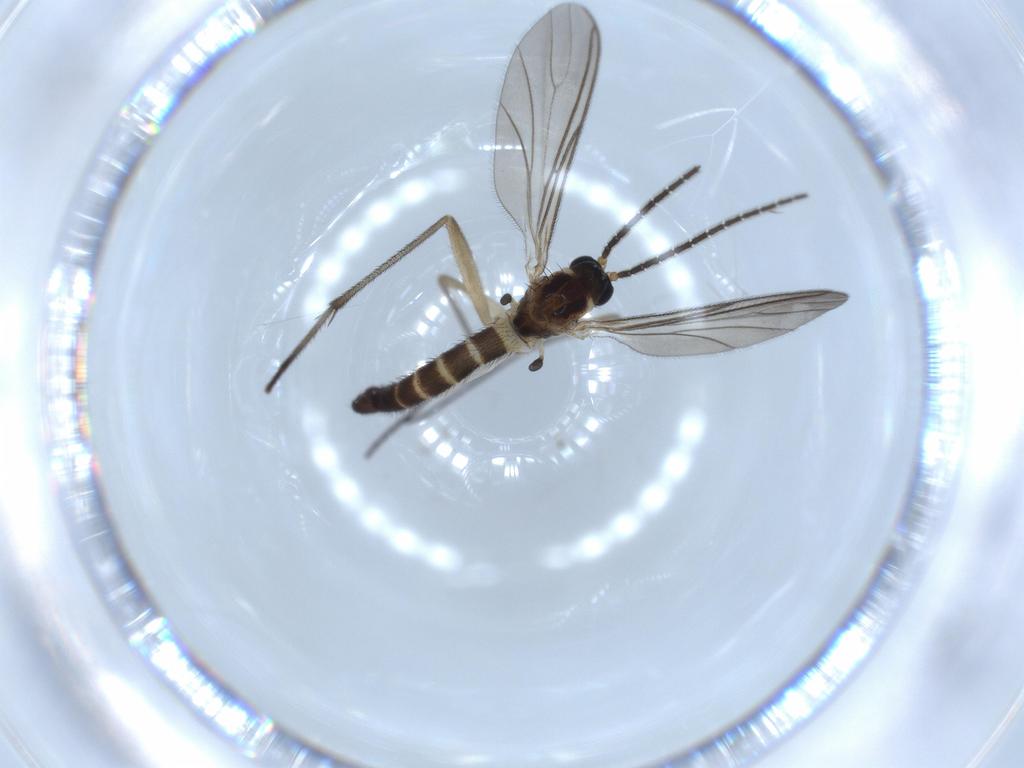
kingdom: Animalia
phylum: Arthropoda
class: Insecta
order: Diptera
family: Sciaridae
